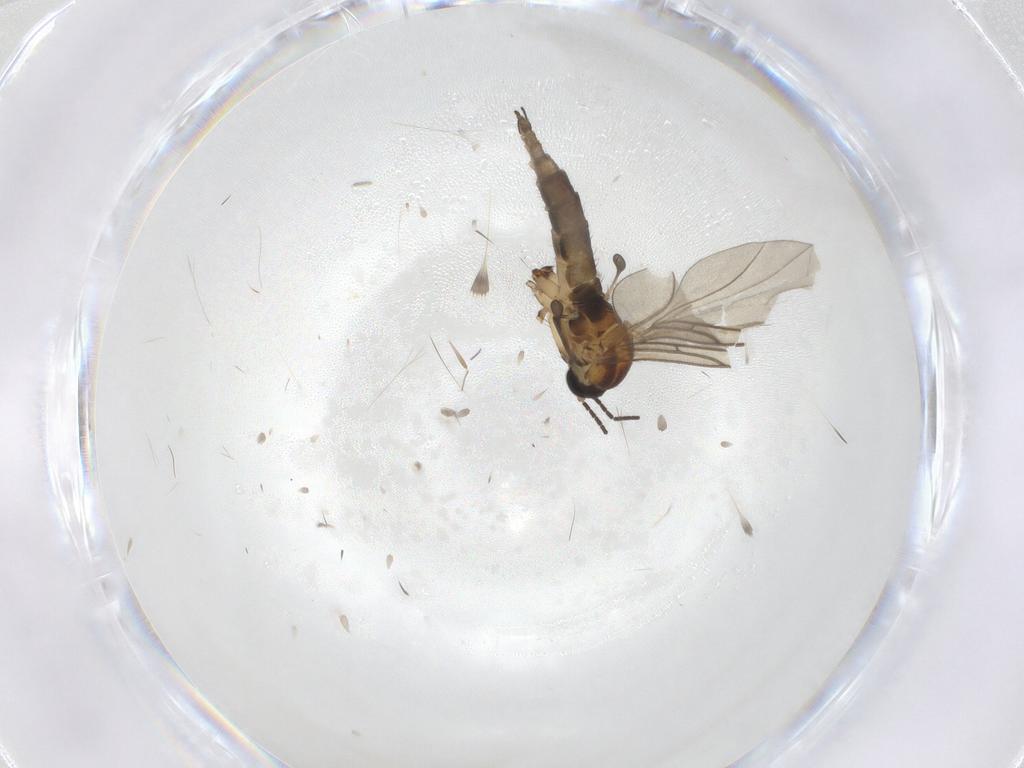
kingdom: Animalia
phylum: Arthropoda
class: Insecta
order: Diptera
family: Sciaridae
